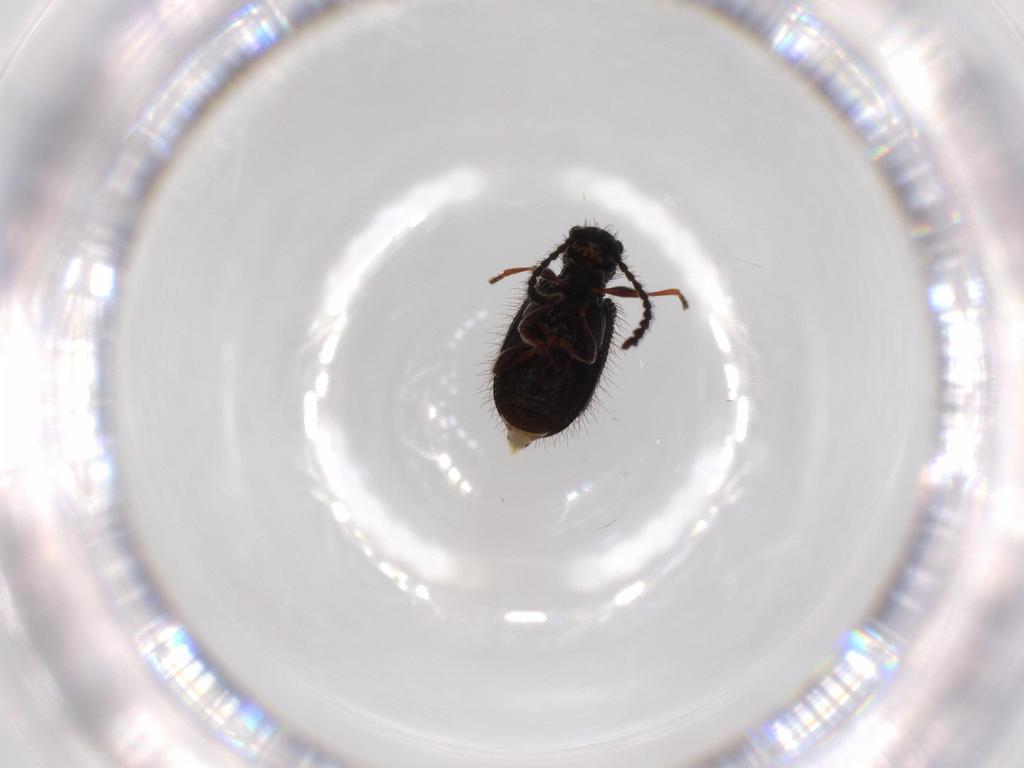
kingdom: Animalia
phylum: Arthropoda
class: Insecta
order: Coleoptera
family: Ptinidae
